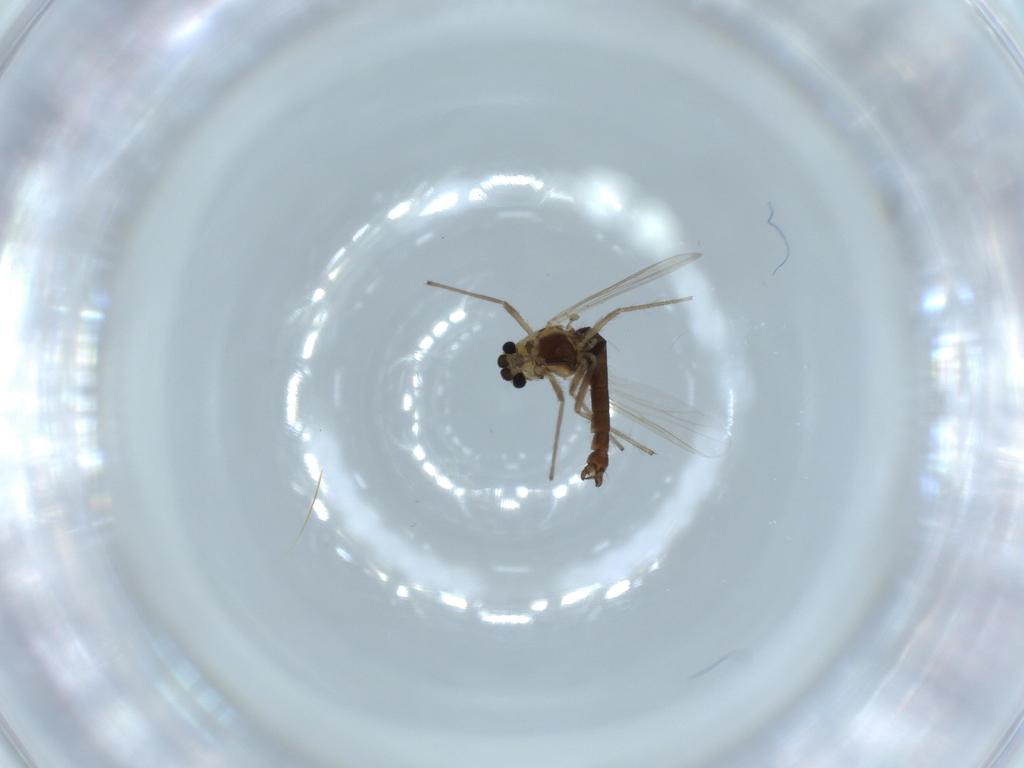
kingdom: Animalia
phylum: Arthropoda
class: Insecta
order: Diptera
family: Chironomidae
